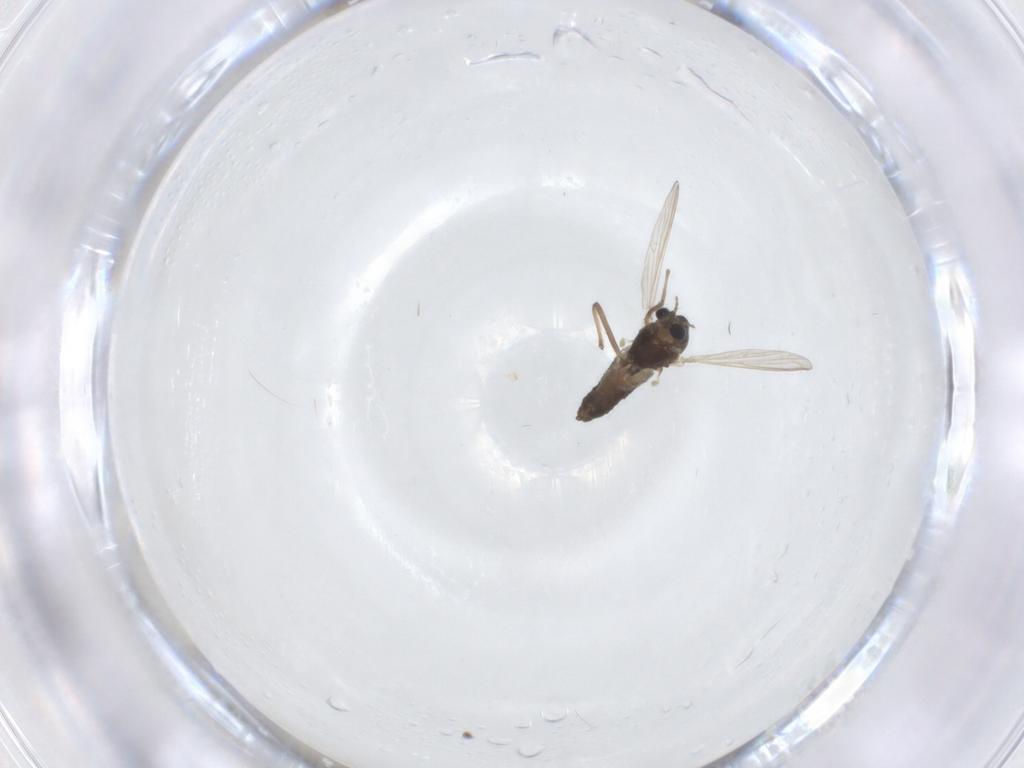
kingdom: Animalia
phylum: Arthropoda
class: Insecta
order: Diptera
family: Chironomidae
